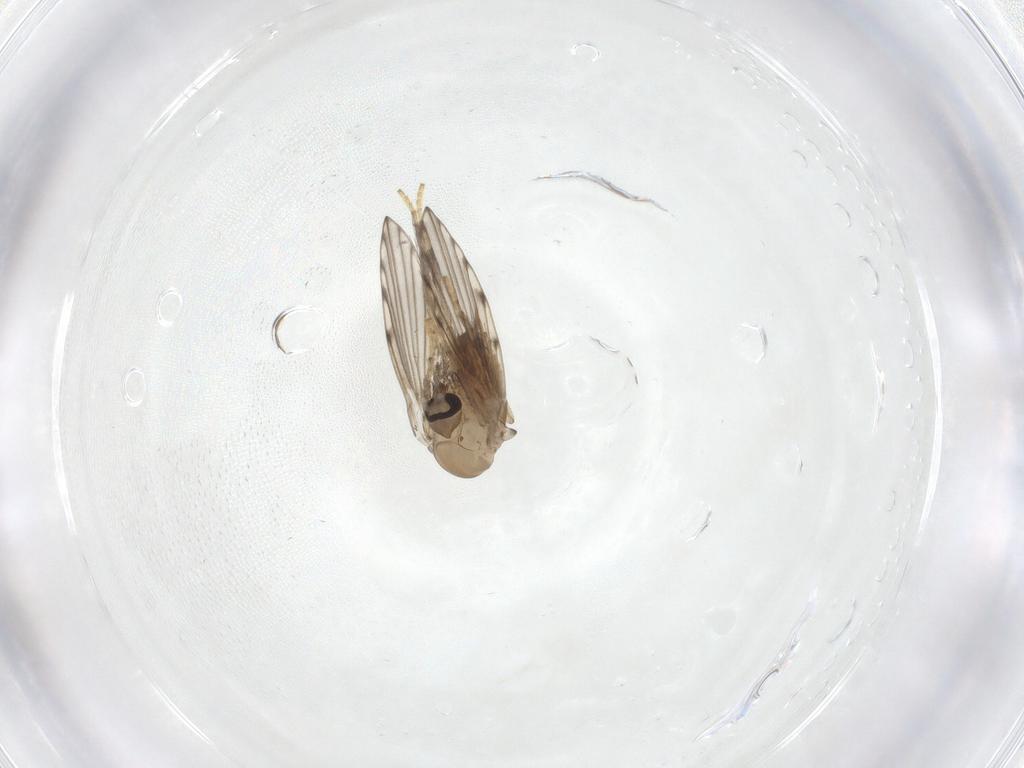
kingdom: Animalia
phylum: Arthropoda
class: Insecta
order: Diptera
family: Psychodidae
